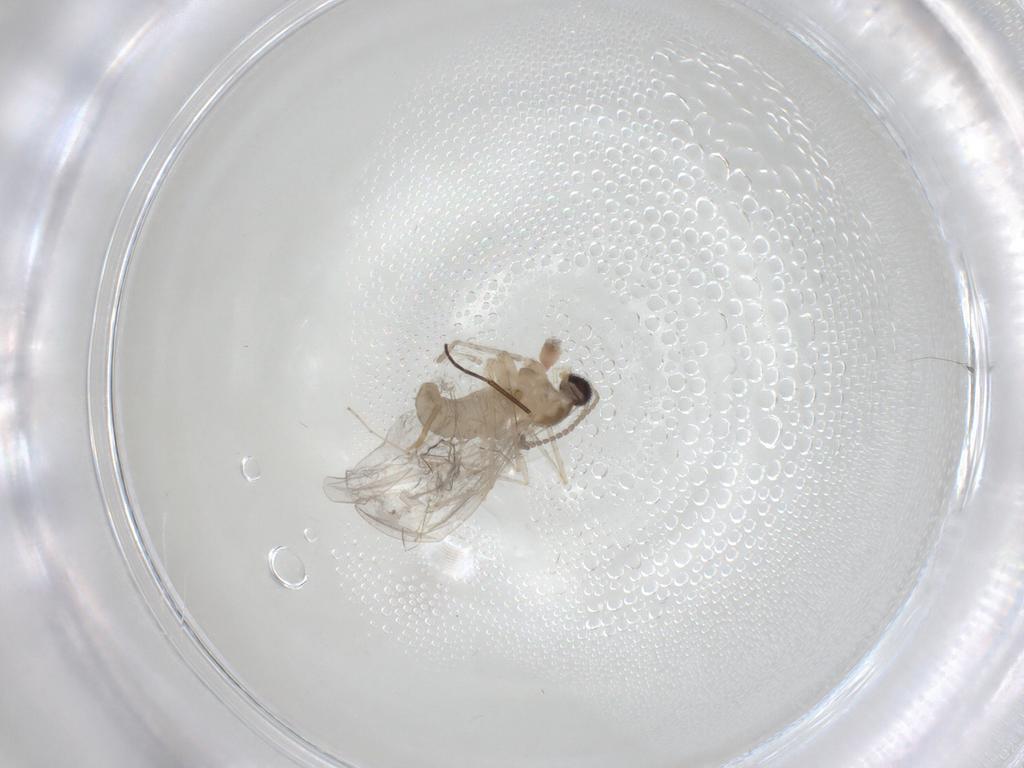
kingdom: Animalia
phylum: Arthropoda
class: Insecta
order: Diptera
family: Cecidomyiidae
